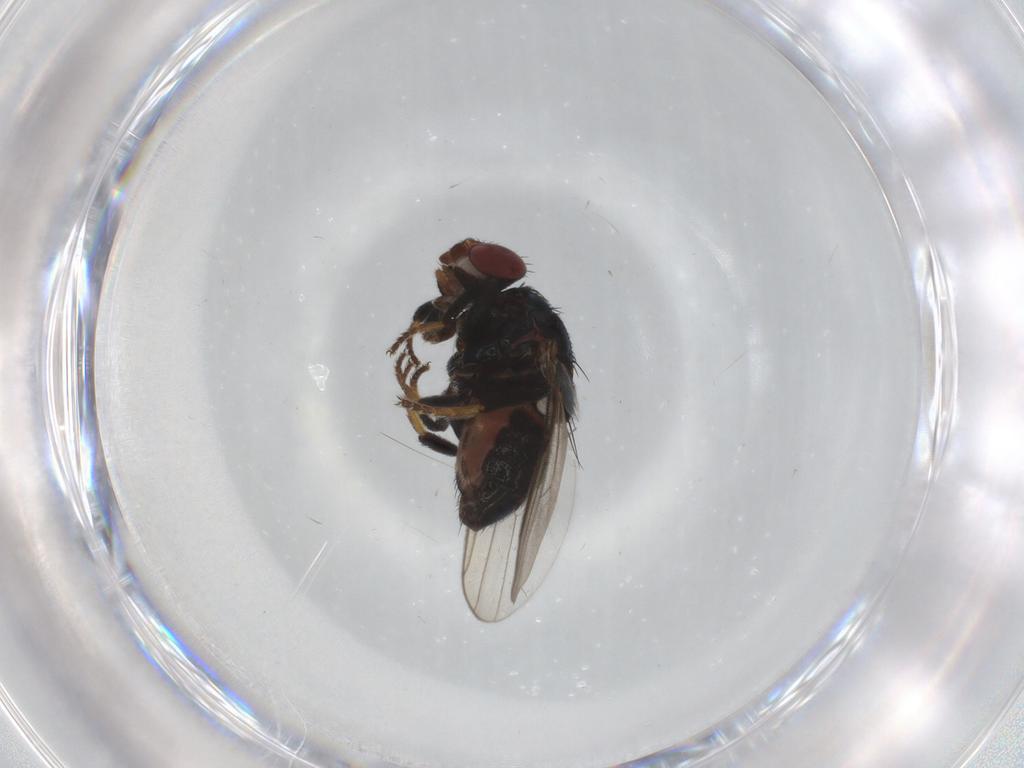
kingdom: Animalia
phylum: Arthropoda
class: Insecta
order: Diptera
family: Chloropidae
